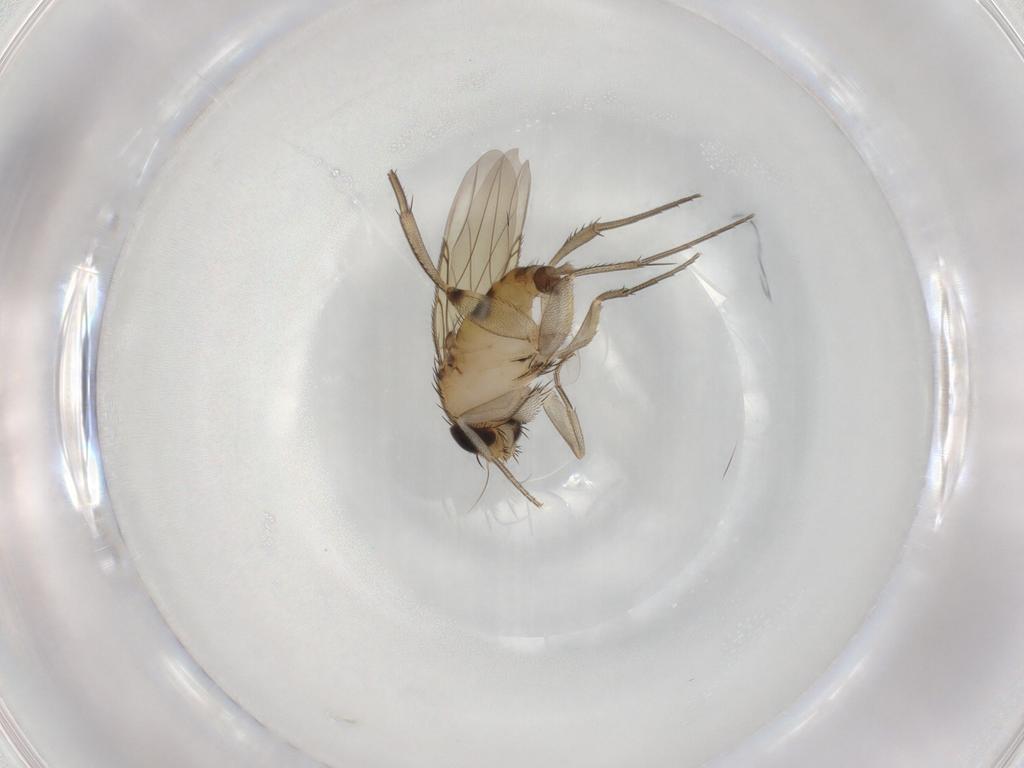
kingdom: Animalia
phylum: Arthropoda
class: Insecta
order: Diptera
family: Phoridae
